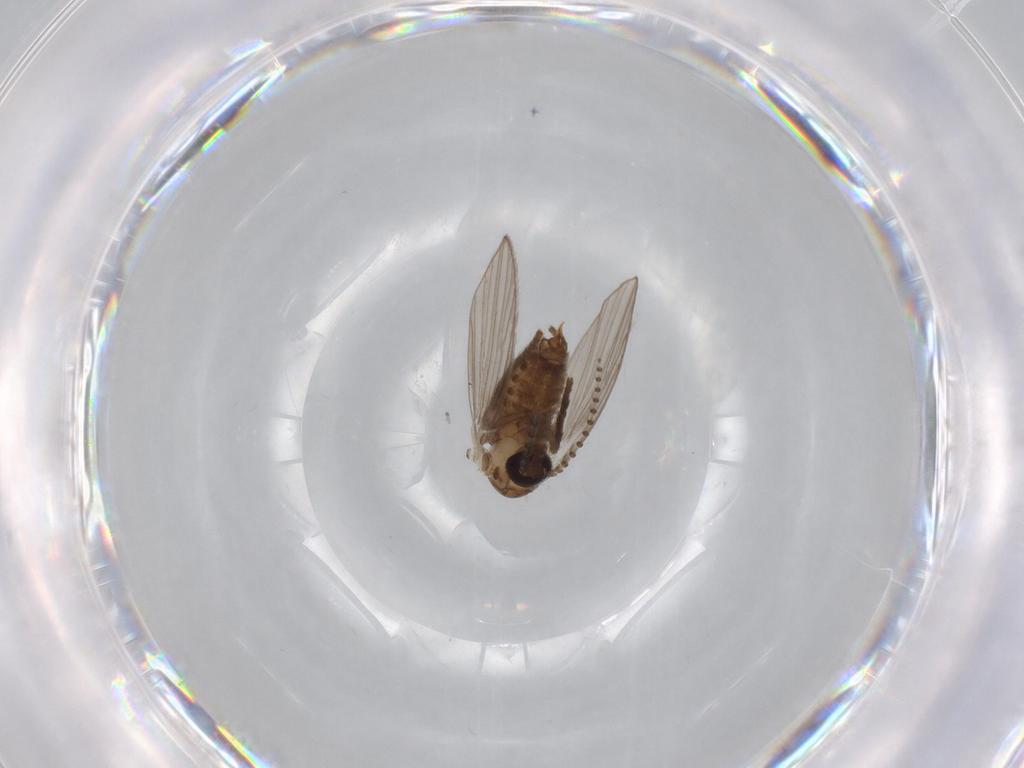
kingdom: Animalia
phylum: Arthropoda
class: Insecta
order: Diptera
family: Psychodidae
